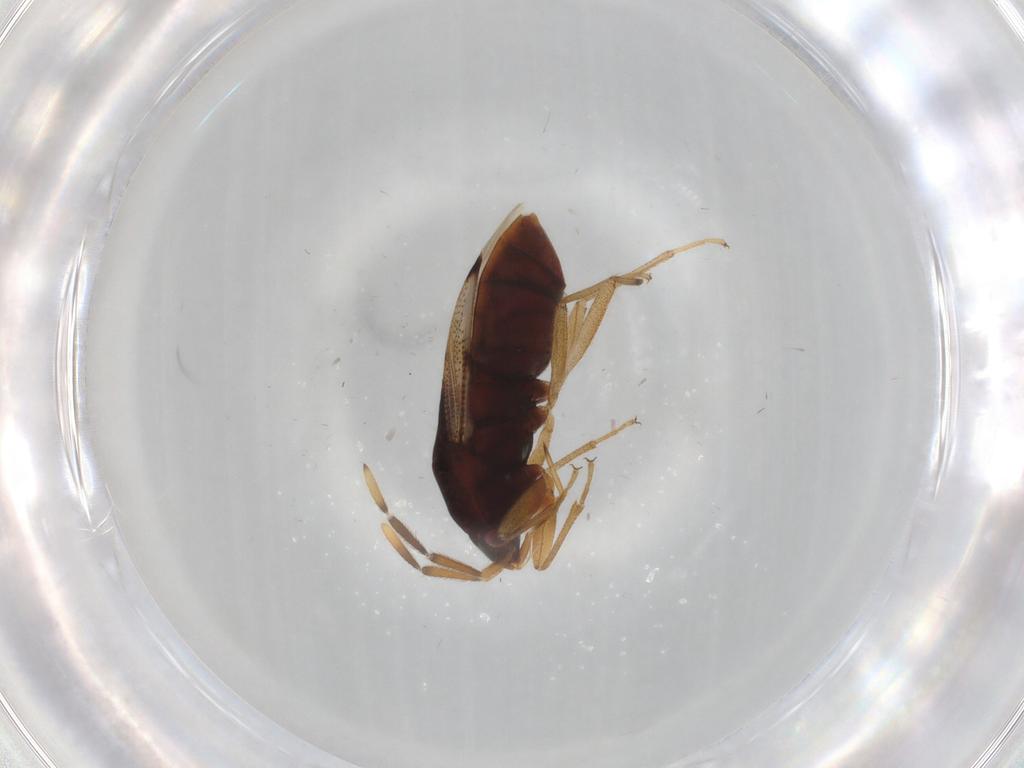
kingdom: Animalia
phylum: Arthropoda
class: Insecta
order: Hemiptera
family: Rhyparochromidae
